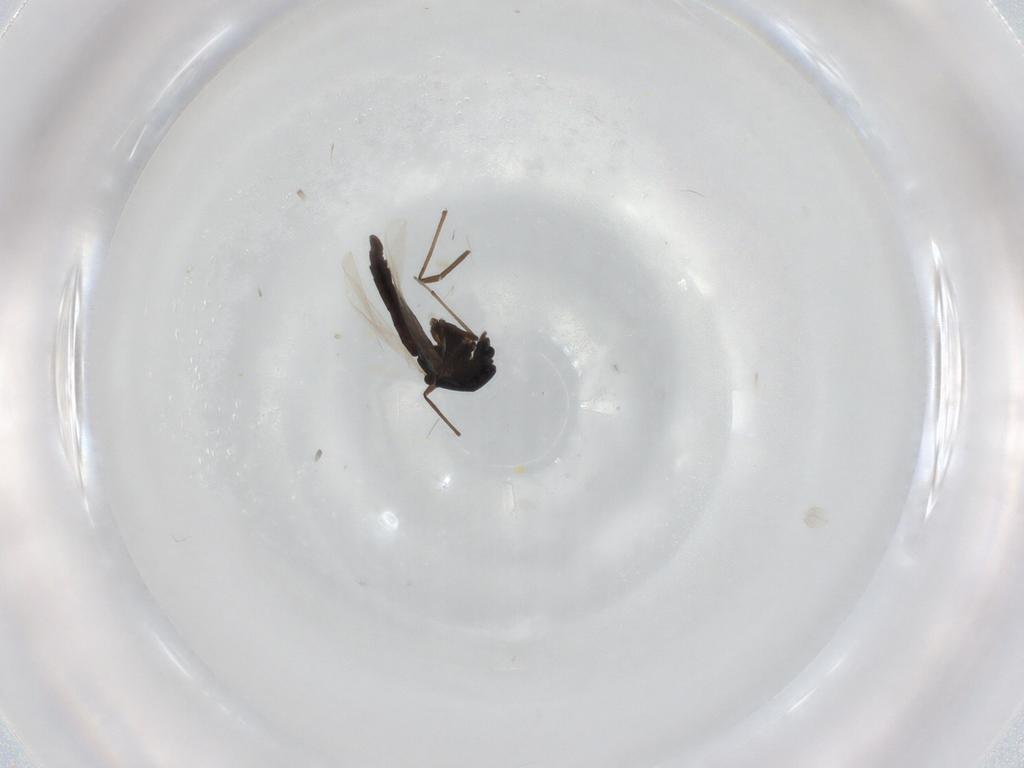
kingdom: Animalia
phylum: Arthropoda
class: Insecta
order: Diptera
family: Chironomidae
